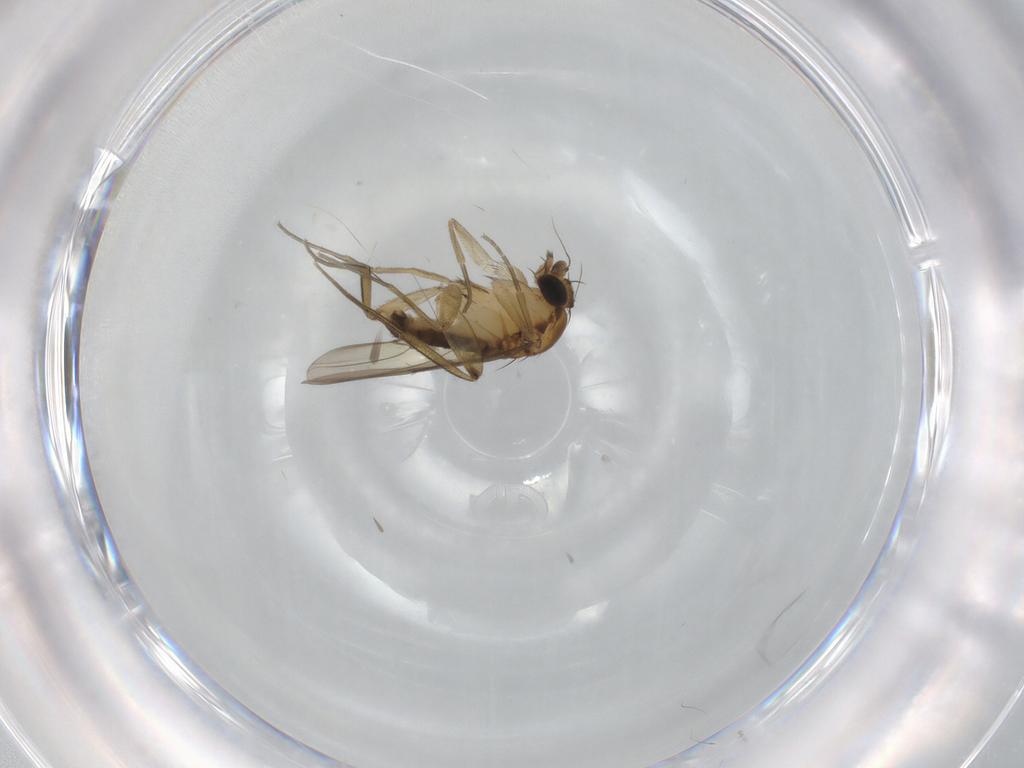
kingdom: Animalia
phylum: Arthropoda
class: Insecta
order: Diptera
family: Phoridae
